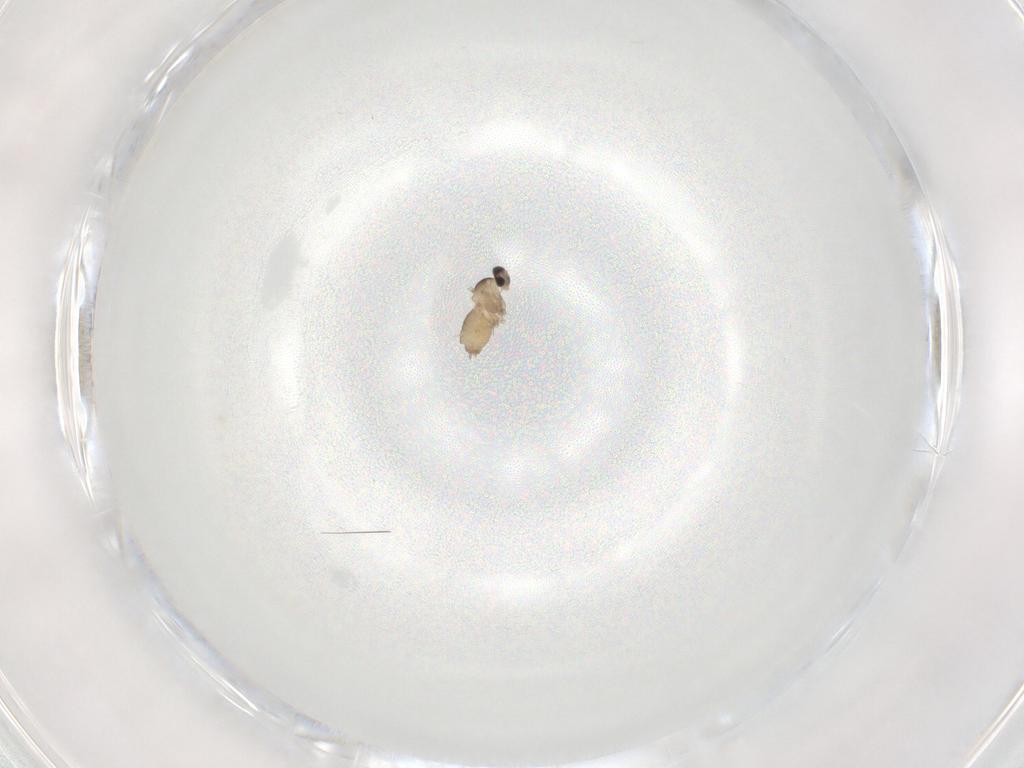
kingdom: Animalia
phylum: Arthropoda
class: Insecta
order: Diptera
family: Cecidomyiidae
